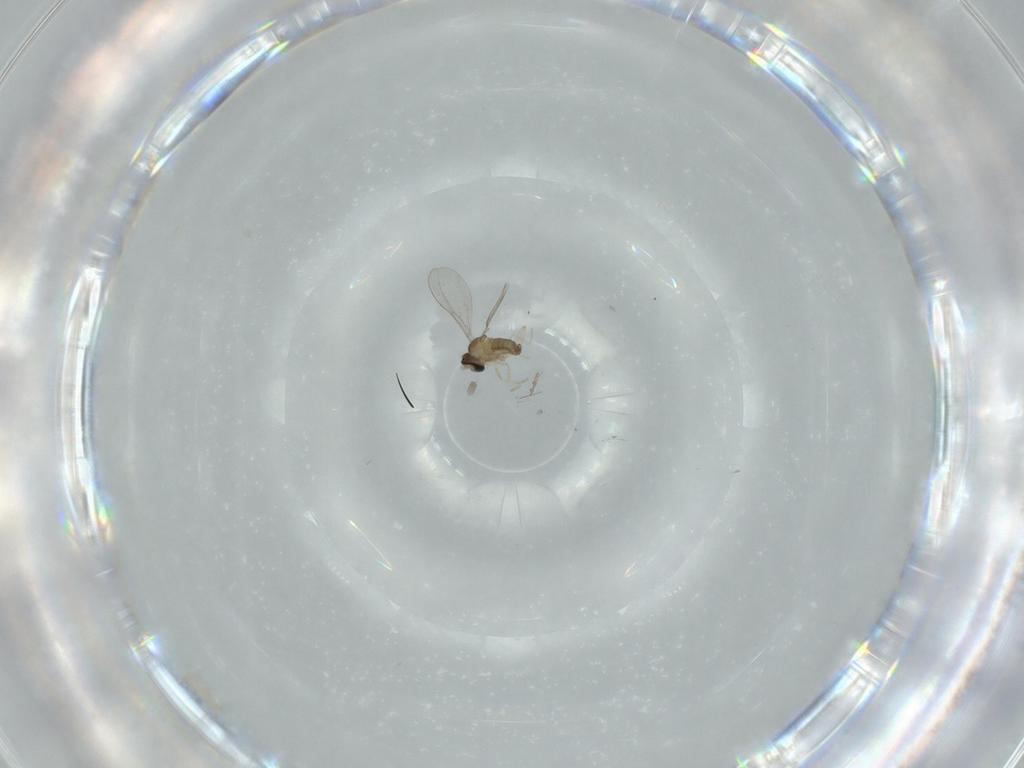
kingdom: Animalia
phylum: Arthropoda
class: Insecta
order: Diptera
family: Cecidomyiidae
